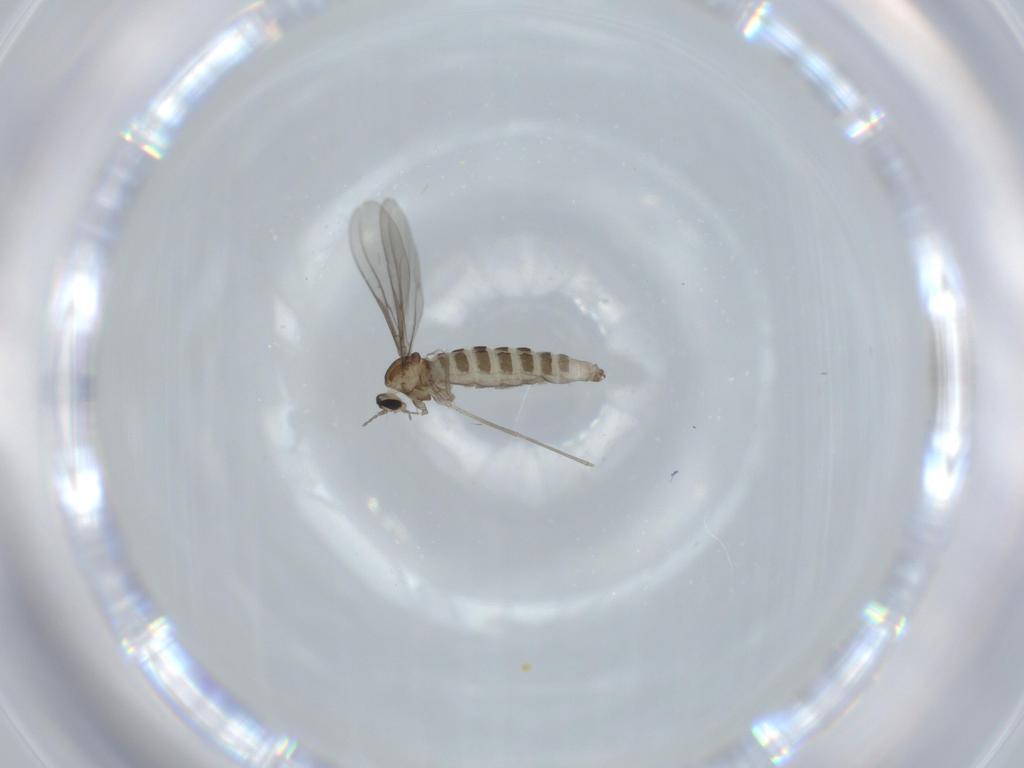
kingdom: Animalia
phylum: Arthropoda
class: Insecta
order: Diptera
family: Cecidomyiidae
